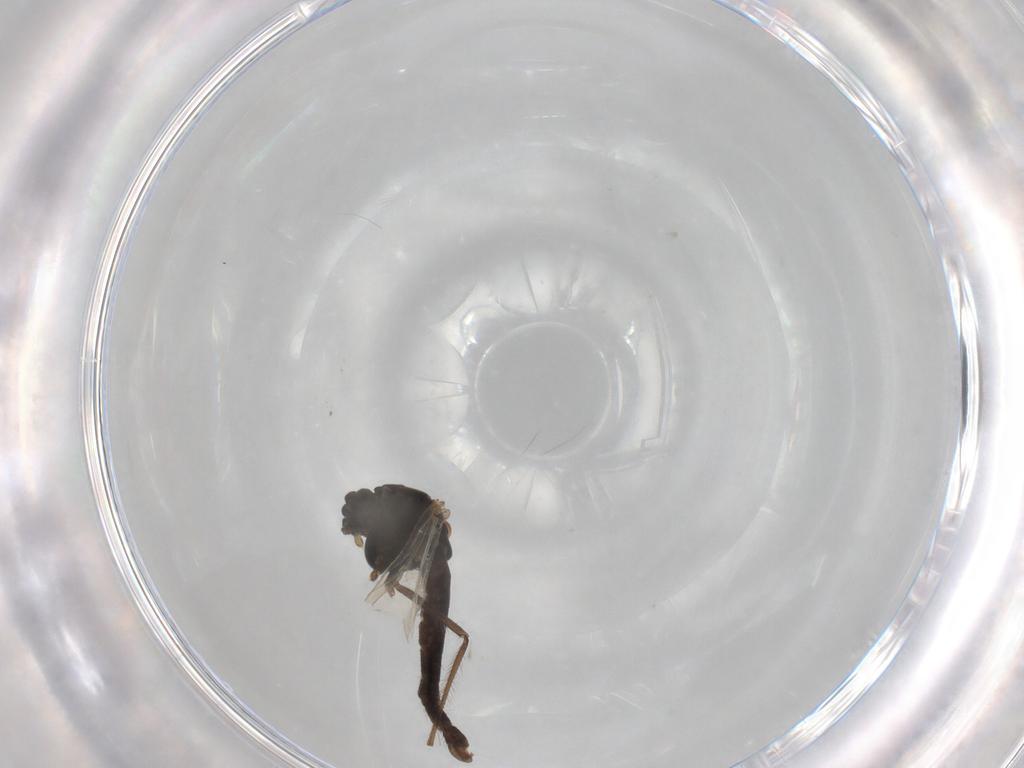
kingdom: Animalia
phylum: Arthropoda
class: Insecta
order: Diptera
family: Chironomidae
